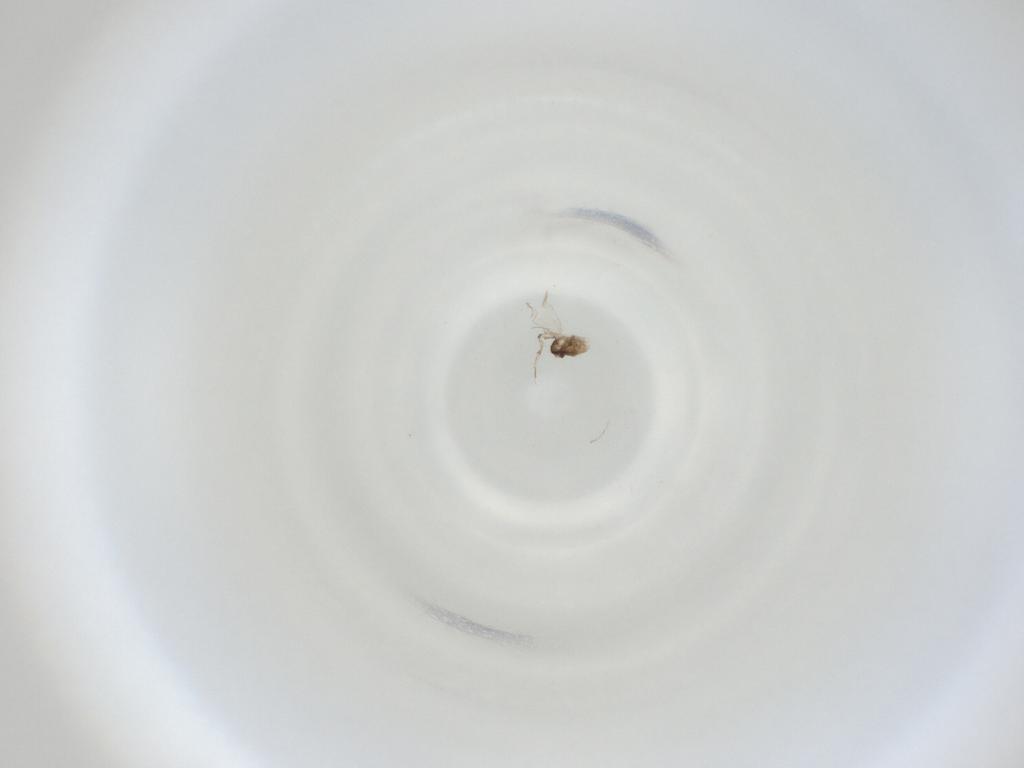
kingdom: Animalia
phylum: Arthropoda
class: Insecta
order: Diptera
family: Cecidomyiidae
